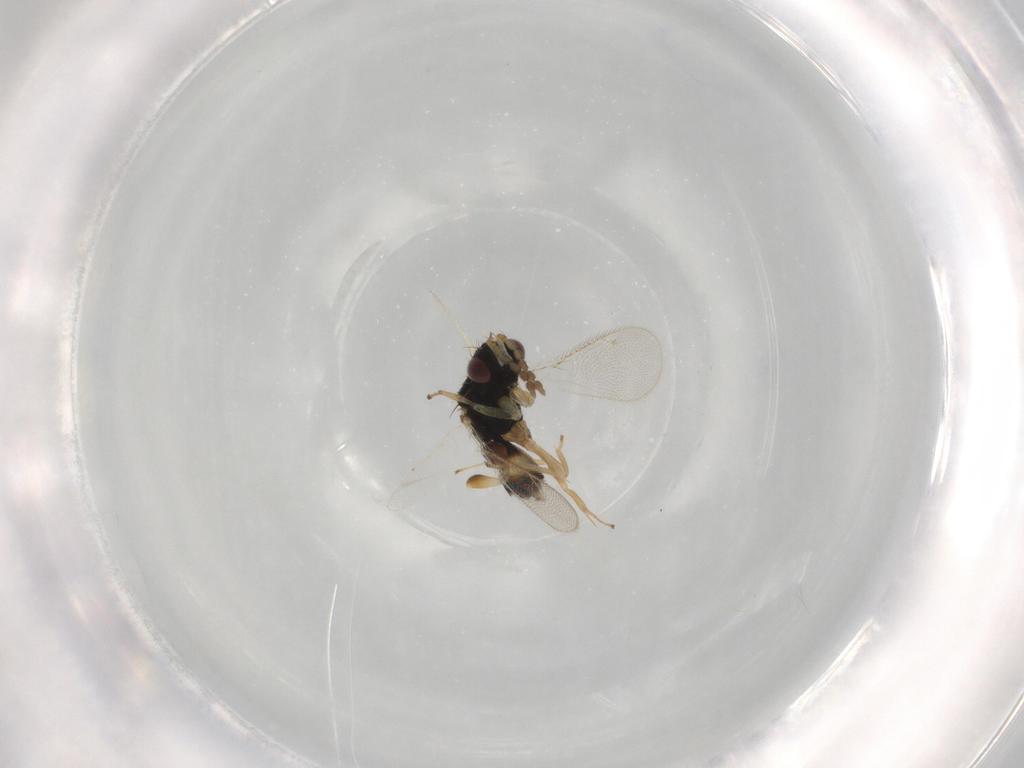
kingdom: Animalia
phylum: Arthropoda
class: Insecta
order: Hymenoptera
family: Eulophidae
